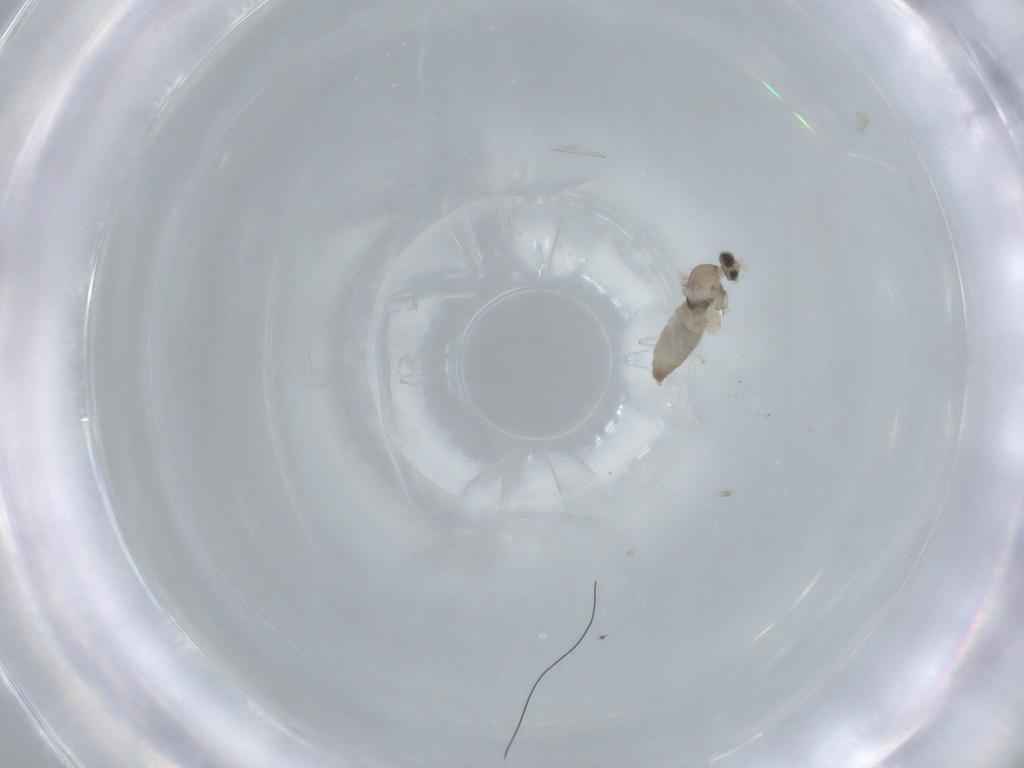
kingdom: Animalia
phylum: Arthropoda
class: Insecta
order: Diptera
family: Cecidomyiidae
